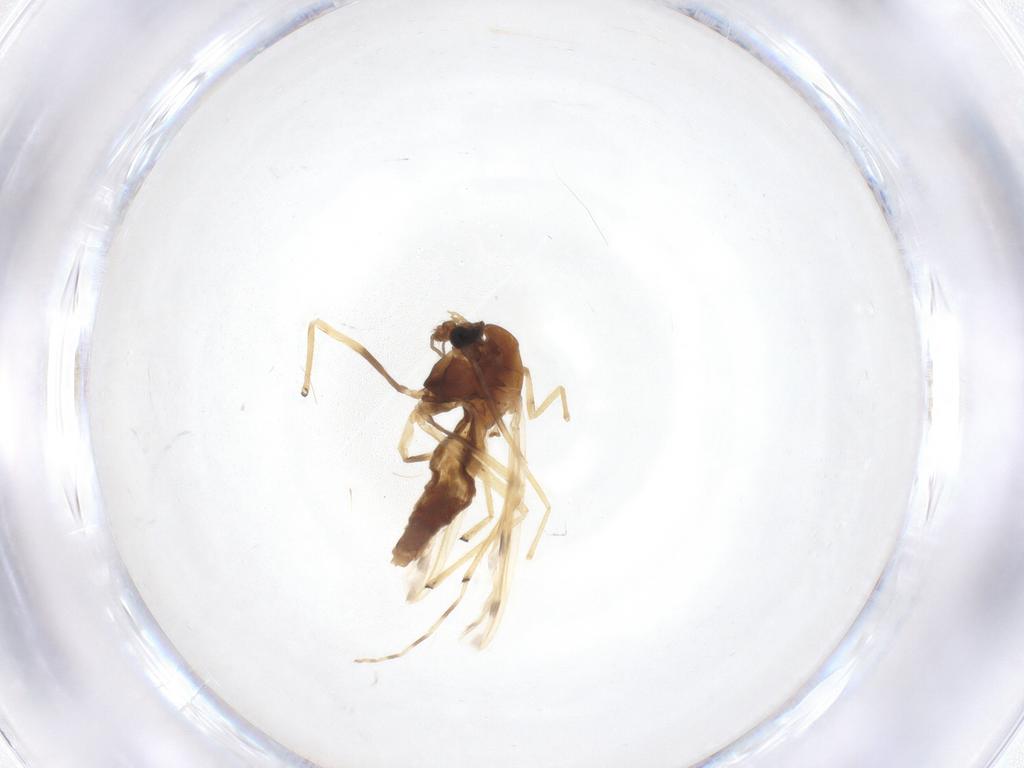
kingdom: Animalia
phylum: Arthropoda
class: Insecta
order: Diptera
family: Chironomidae
